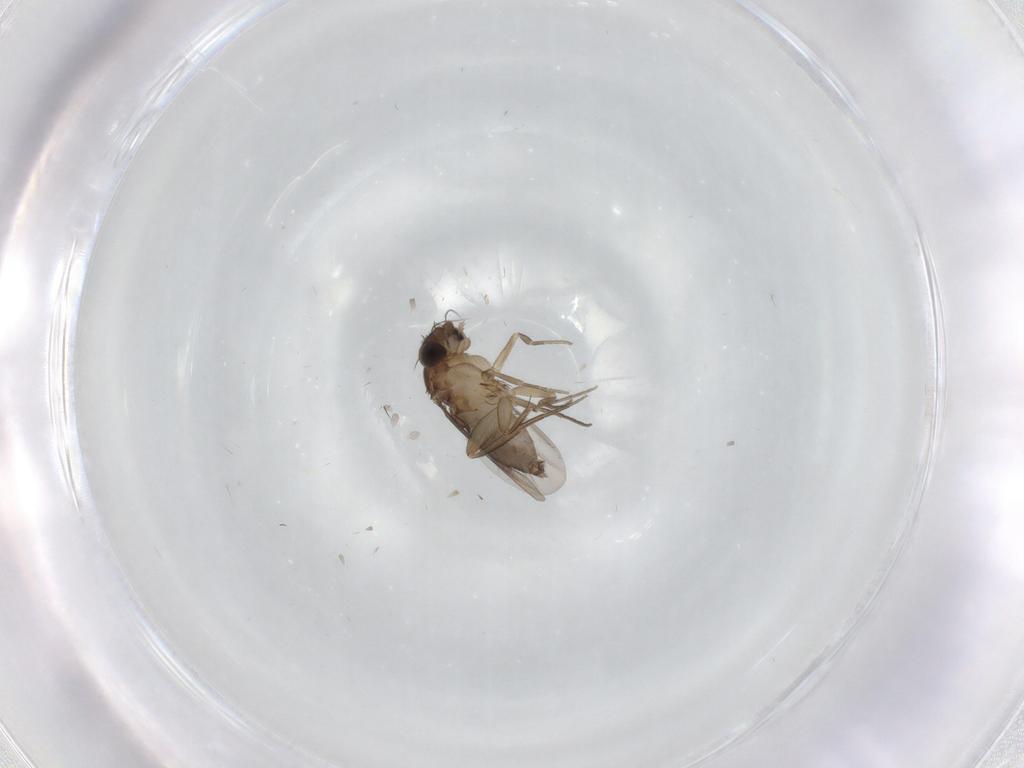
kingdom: Animalia
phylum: Arthropoda
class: Insecta
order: Diptera
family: Phoridae
